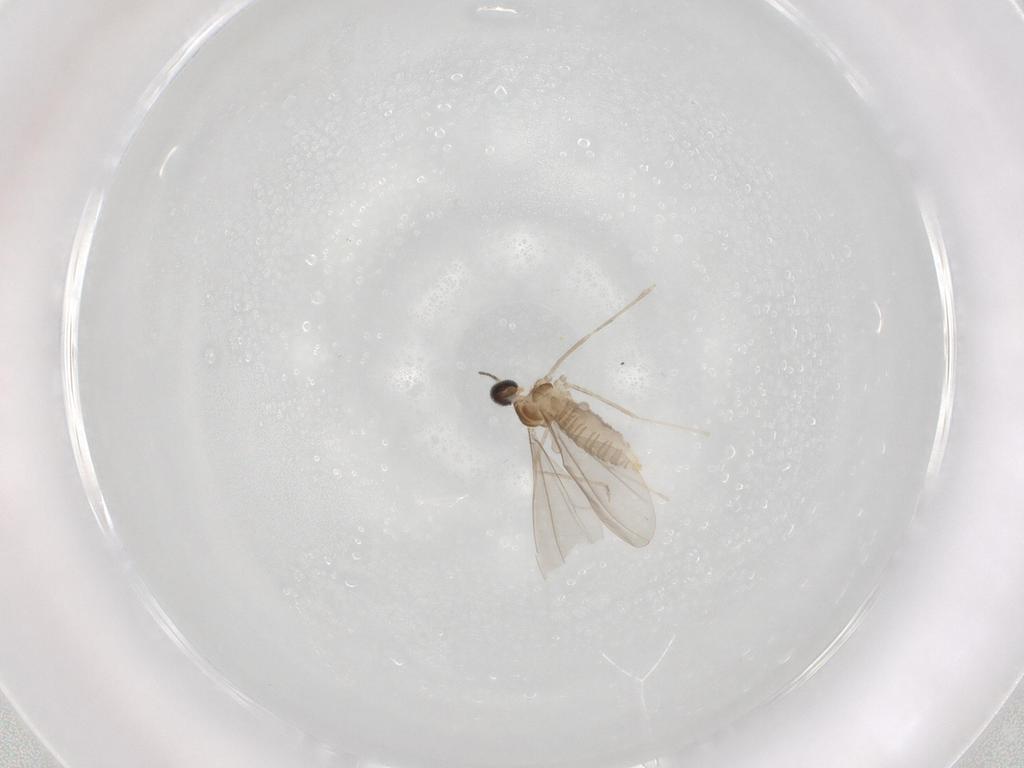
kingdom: Animalia
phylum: Arthropoda
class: Insecta
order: Diptera
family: Cecidomyiidae
